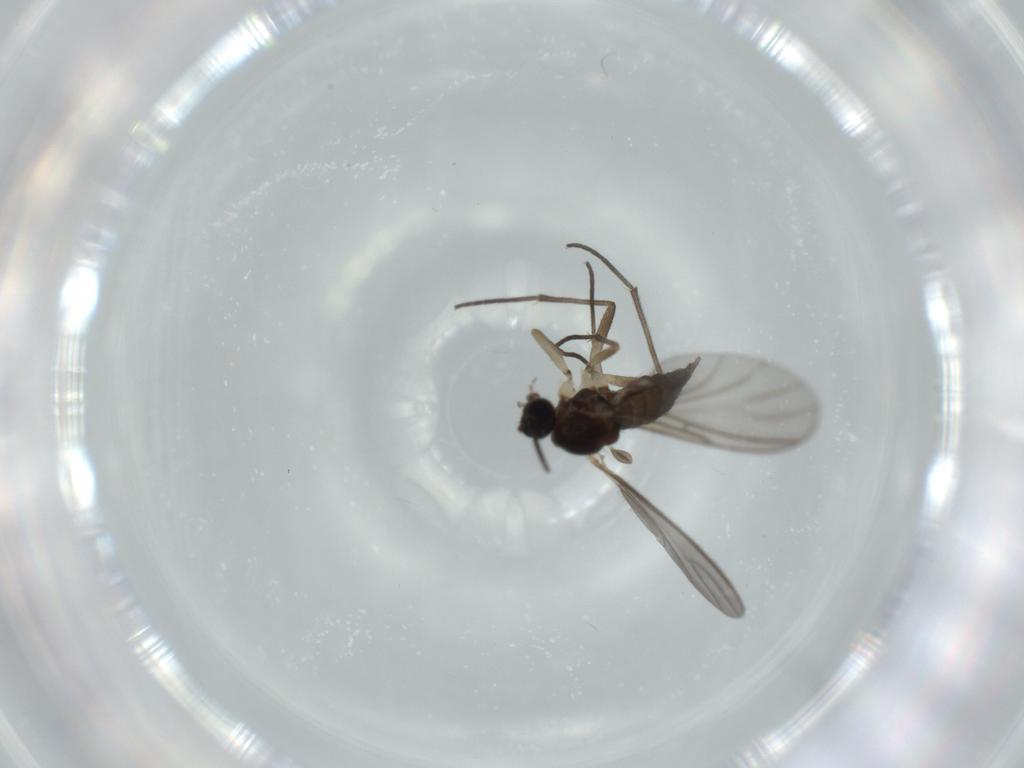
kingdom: Animalia
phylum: Arthropoda
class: Insecta
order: Diptera
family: Sciaridae
